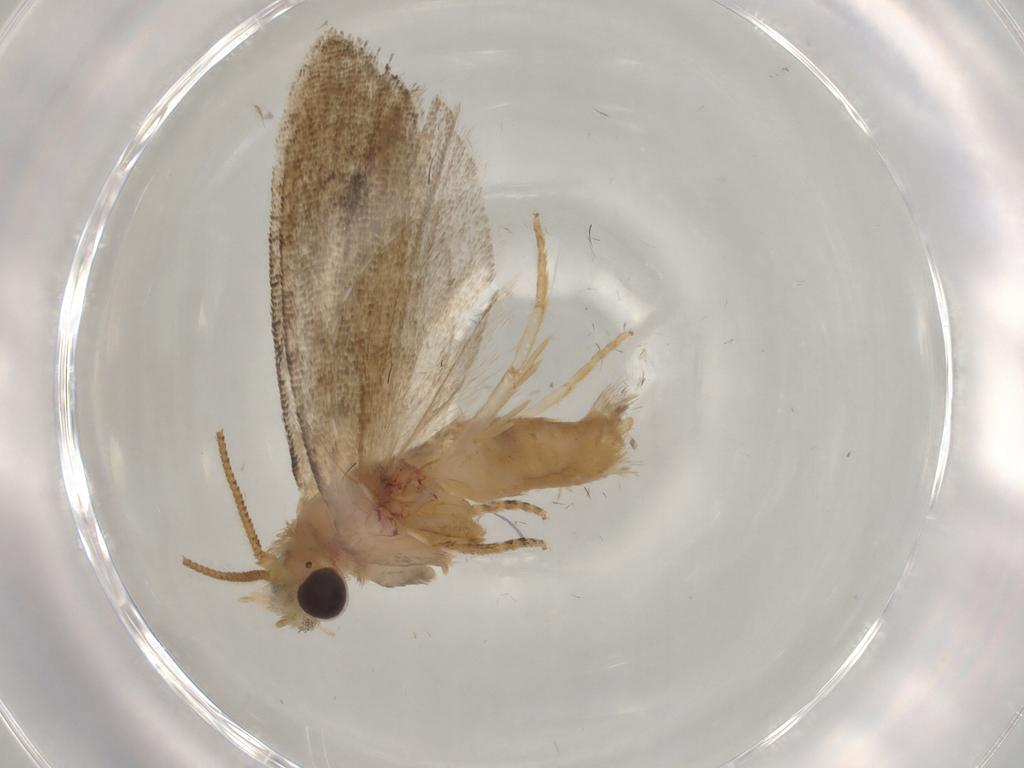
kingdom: Animalia
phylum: Arthropoda
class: Insecta
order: Lepidoptera
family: Tortricidae
